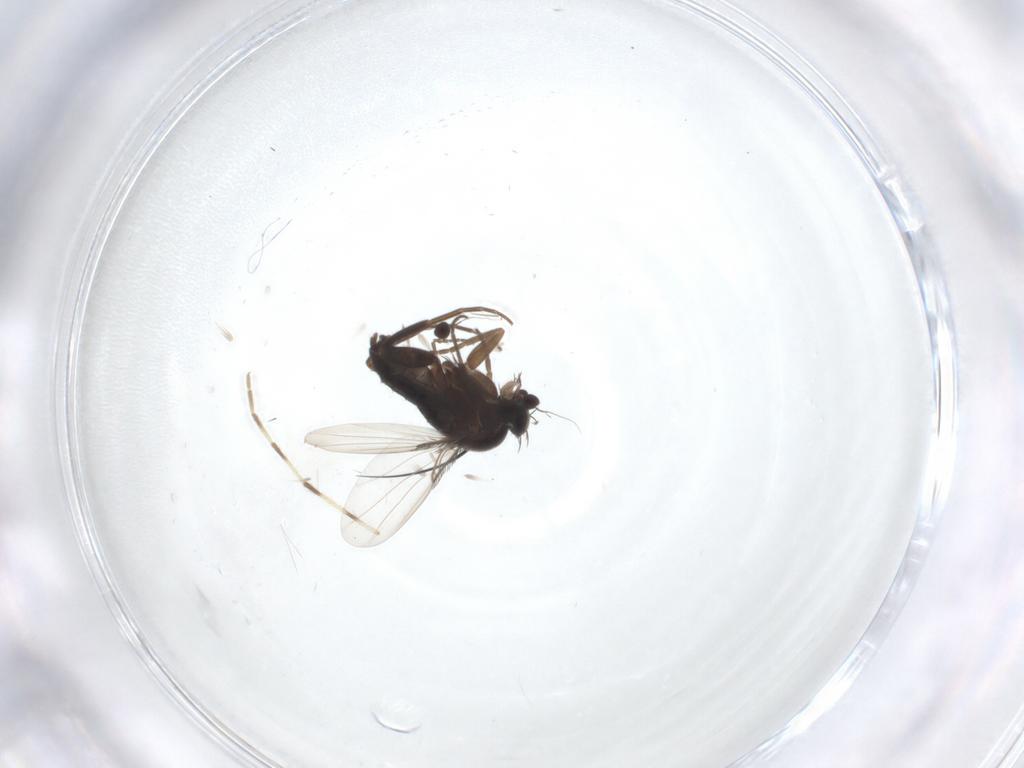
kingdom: Animalia
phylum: Arthropoda
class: Insecta
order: Diptera
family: Phoridae
